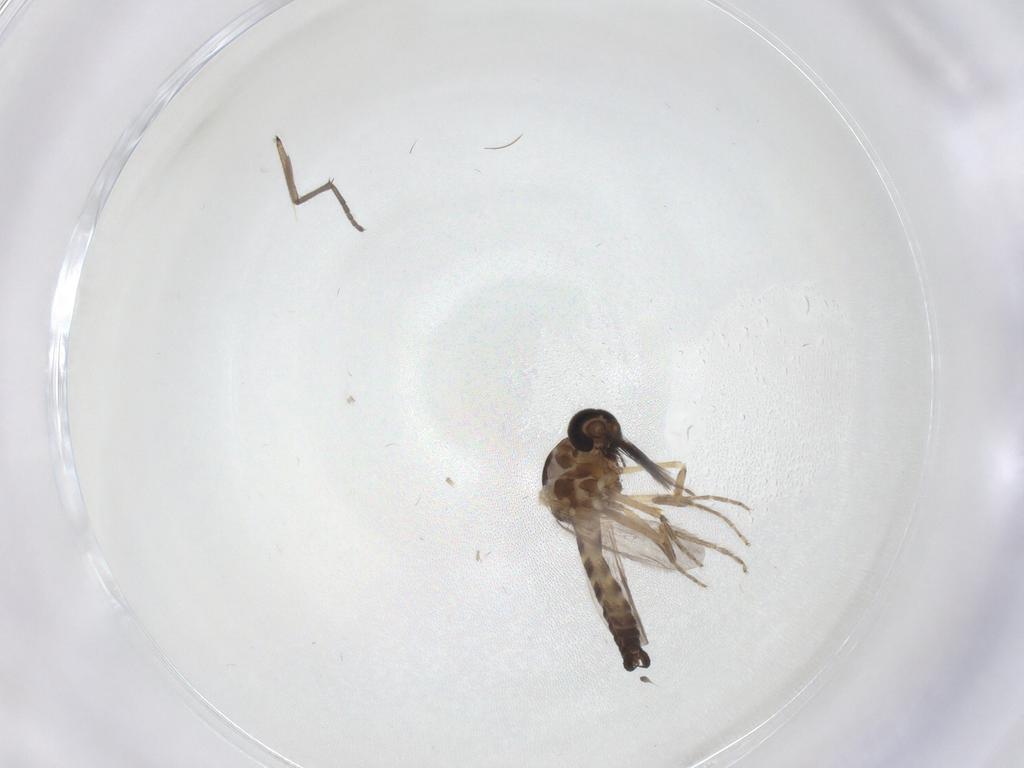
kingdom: Animalia
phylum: Arthropoda
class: Insecta
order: Diptera
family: Ceratopogonidae
